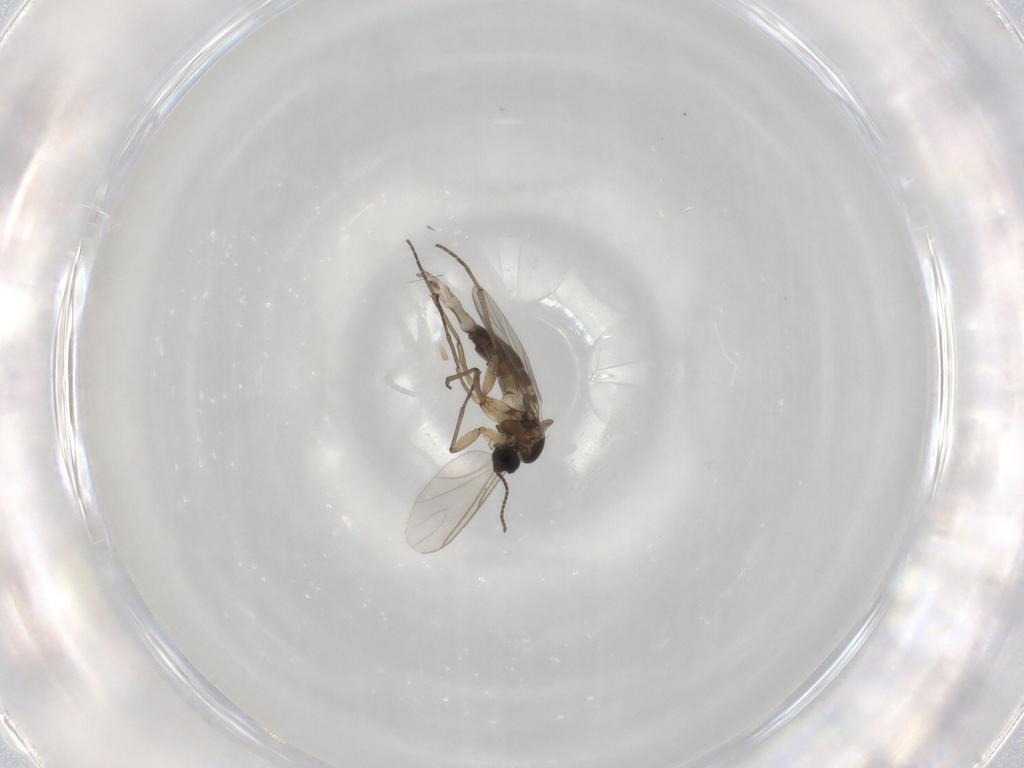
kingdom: Animalia
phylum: Arthropoda
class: Insecta
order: Diptera
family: Sciaridae
